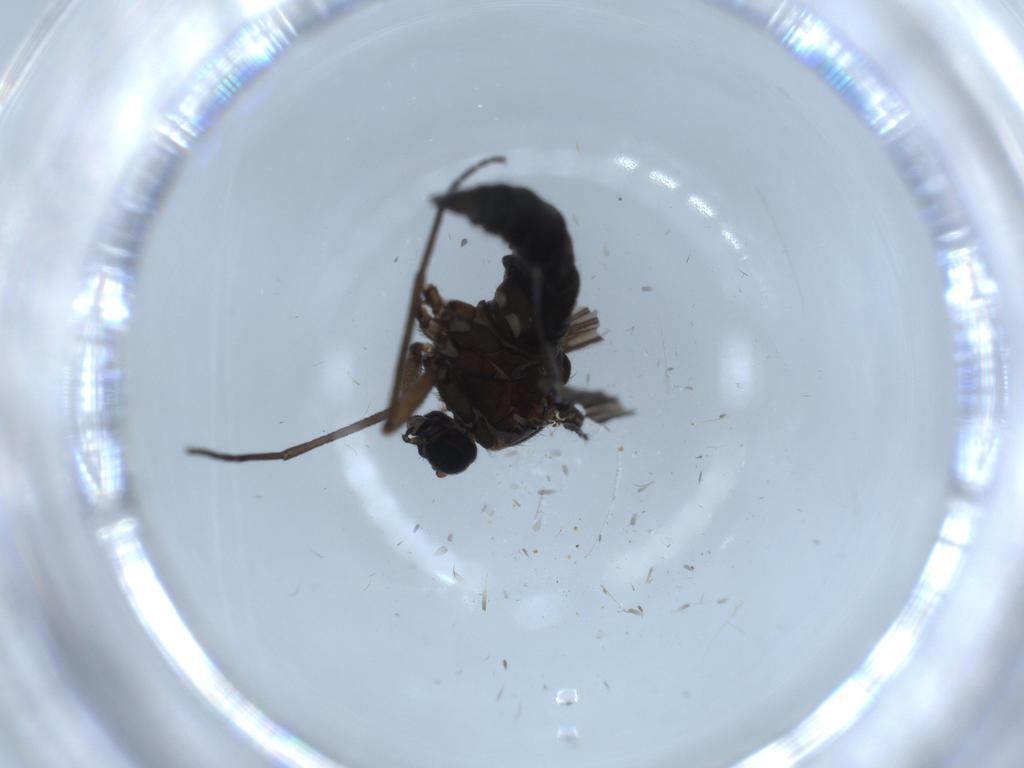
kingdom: Animalia
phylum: Arthropoda
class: Insecta
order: Diptera
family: Sciaridae
